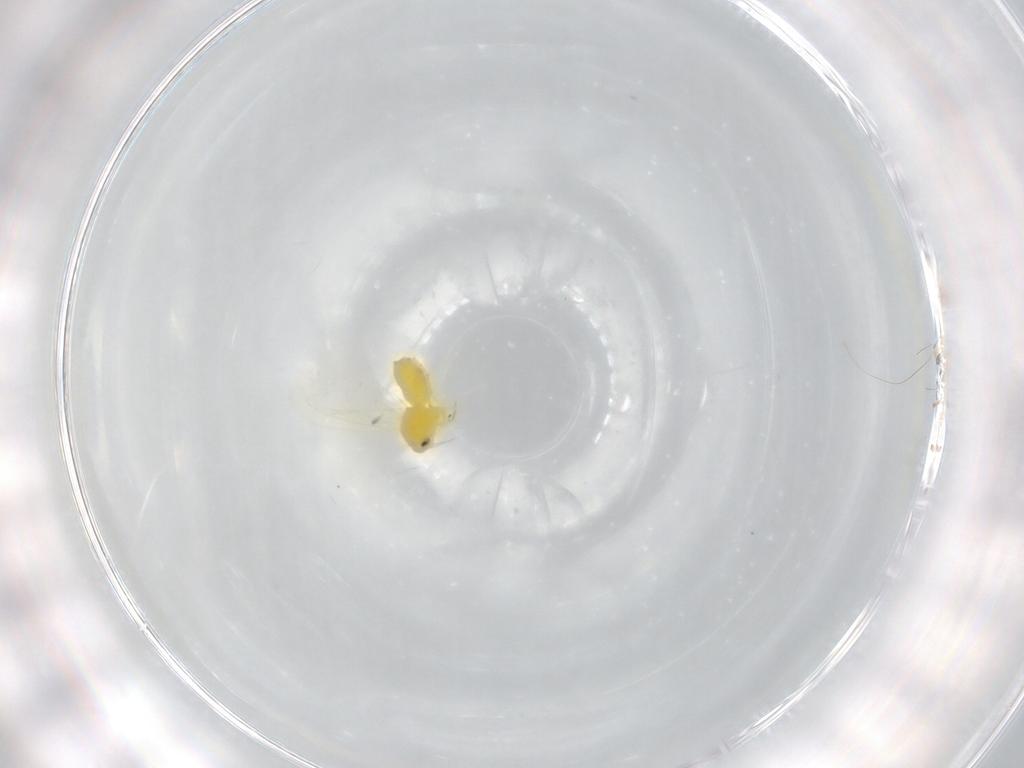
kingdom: Animalia
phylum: Arthropoda
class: Insecta
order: Hemiptera
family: Aleyrodidae
